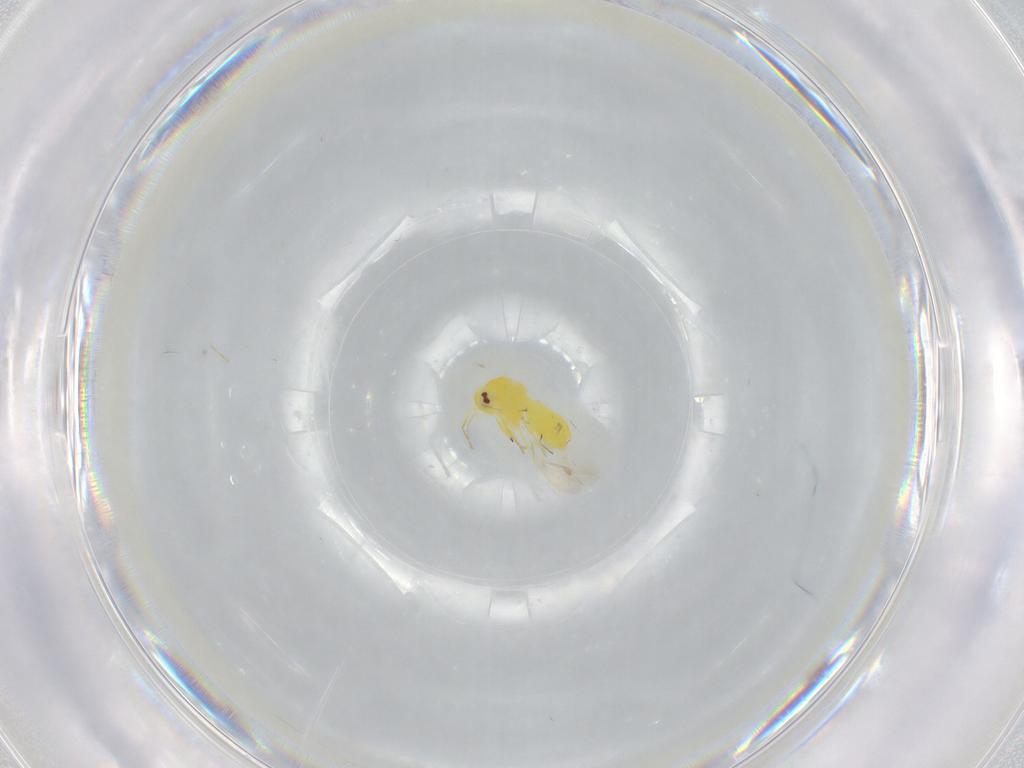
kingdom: Animalia
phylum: Arthropoda
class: Insecta
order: Hemiptera
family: Aleyrodidae
